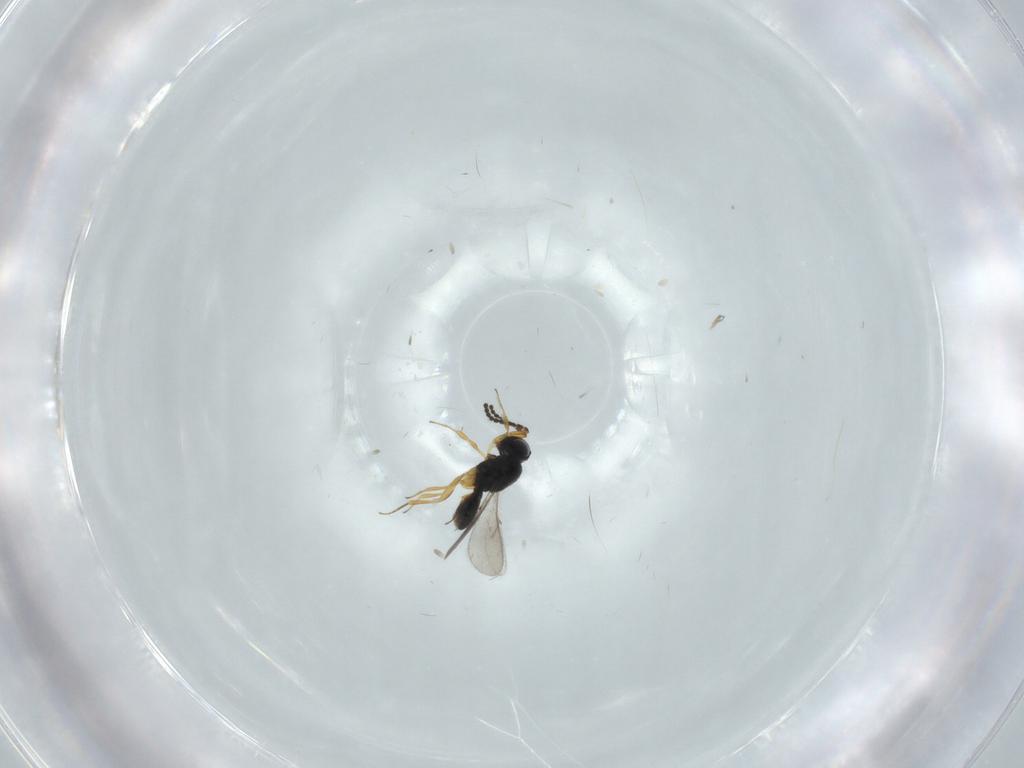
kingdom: Animalia
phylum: Arthropoda
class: Insecta
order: Hymenoptera
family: Scelionidae
